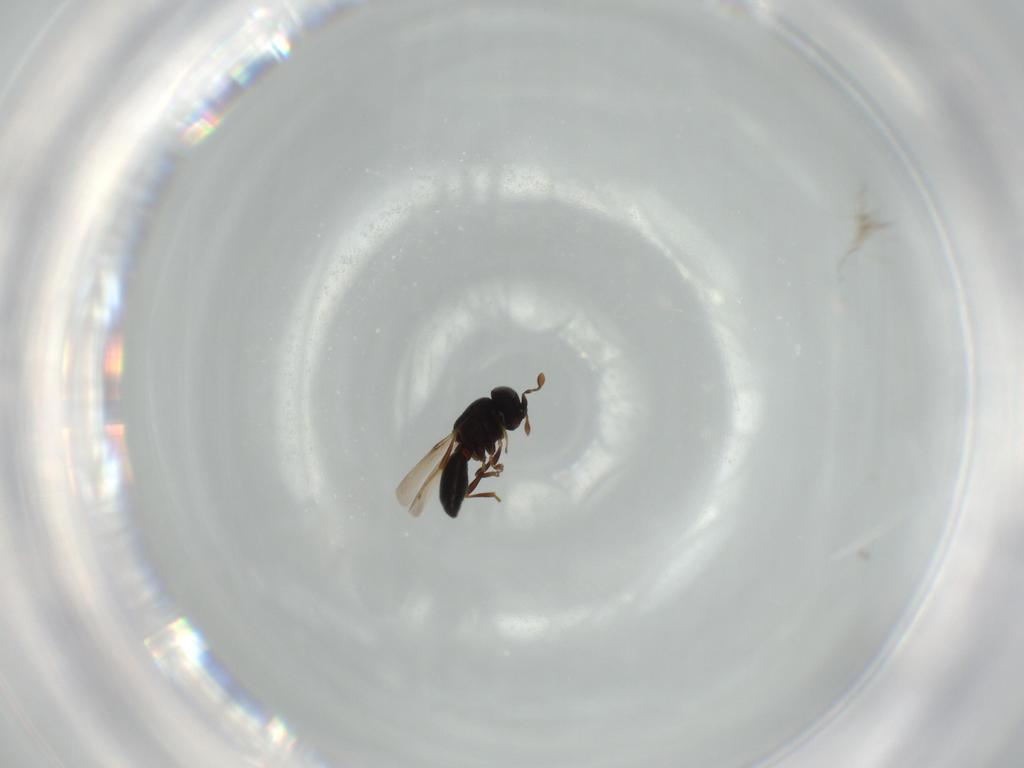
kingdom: Animalia
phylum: Arthropoda
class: Insecta
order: Hymenoptera
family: Scelionidae
